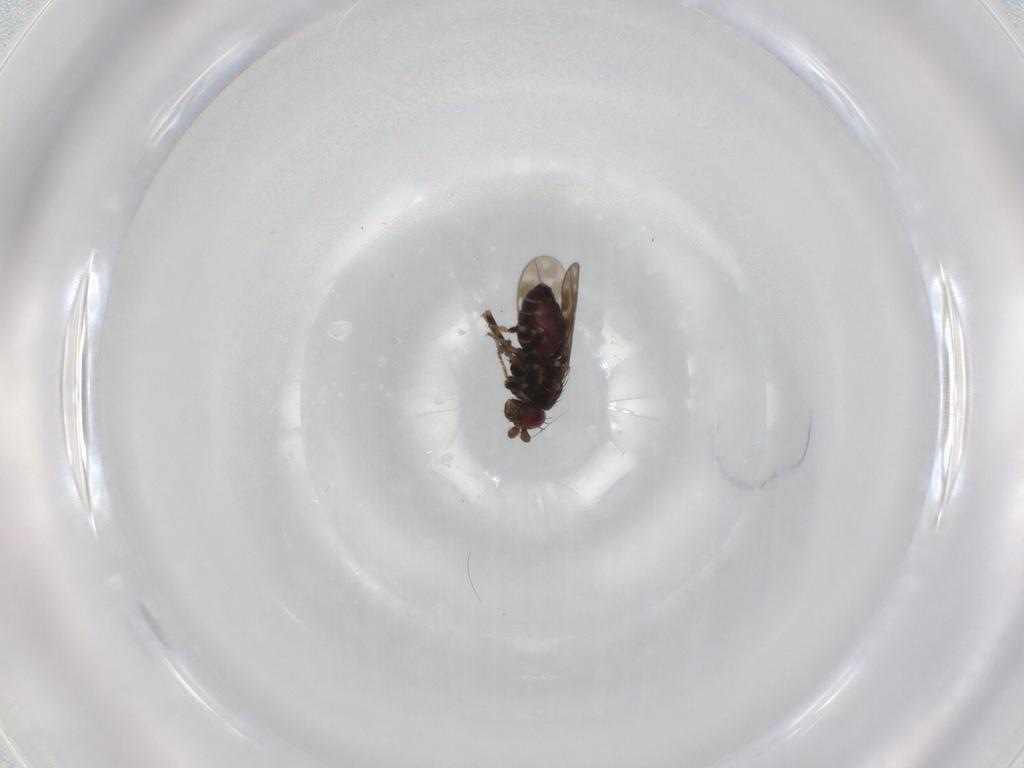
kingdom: Animalia
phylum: Arthropoda
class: Insecta
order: Diptera
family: Sphaeroceridae
